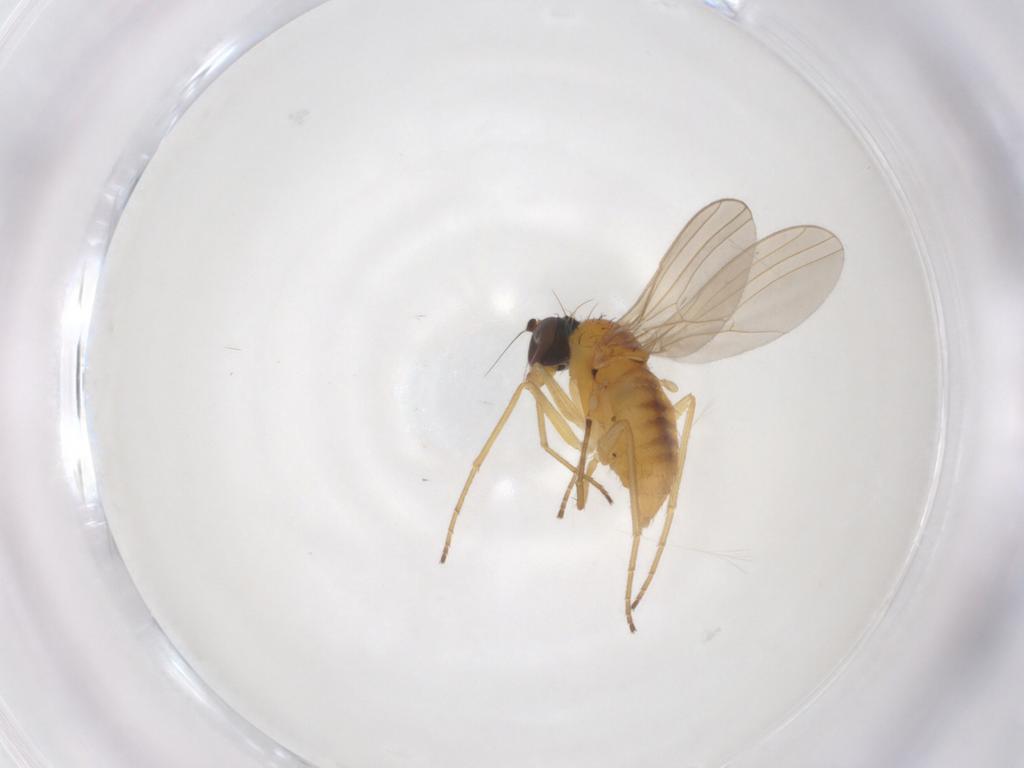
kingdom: Animalia
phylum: Arthropoda
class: Insecta
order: Diptera
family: Dolichopodidae
